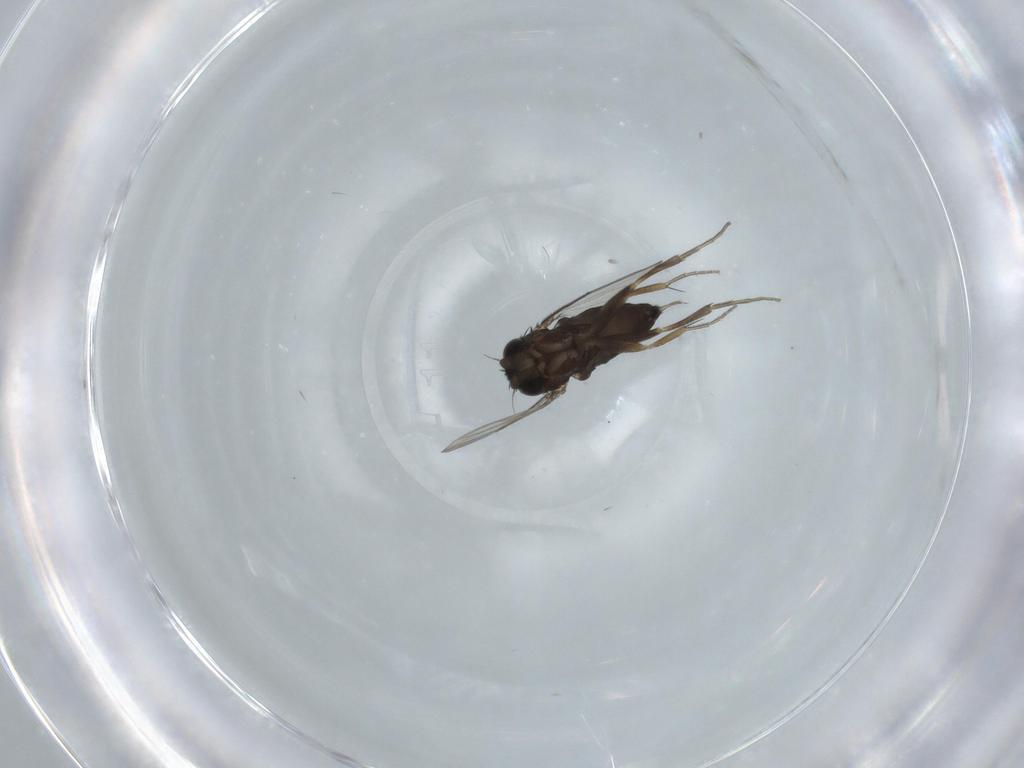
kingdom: Animalia
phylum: Arthropoda
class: Insecta
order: Diptera
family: Phoridae
